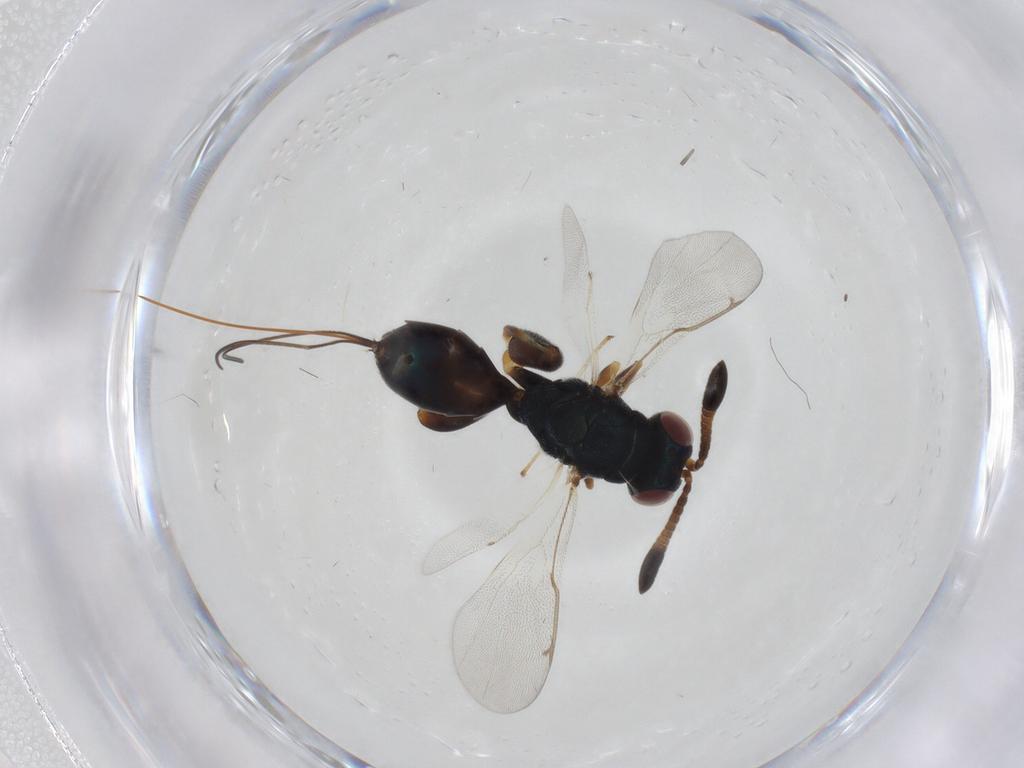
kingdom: Animalia
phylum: Arthropoda
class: Insecta
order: Hymenoptera
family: Torymidae
